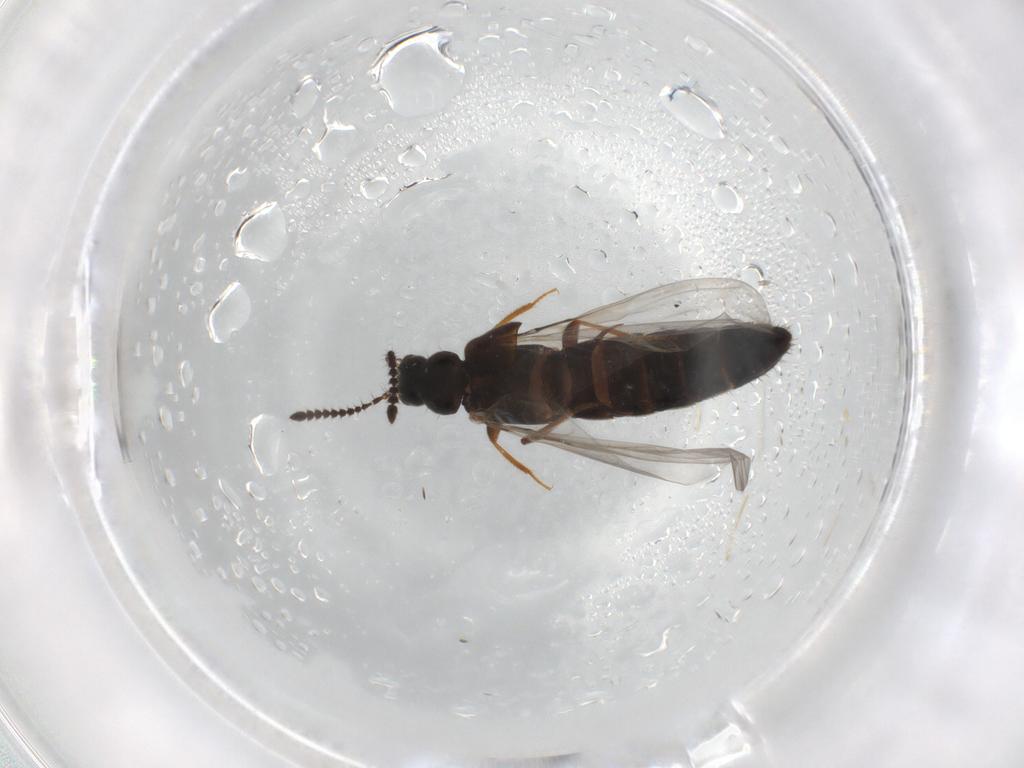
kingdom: Animalia
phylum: Arthropoda
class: Insecta
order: Coleoptera
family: Staphylinidae
